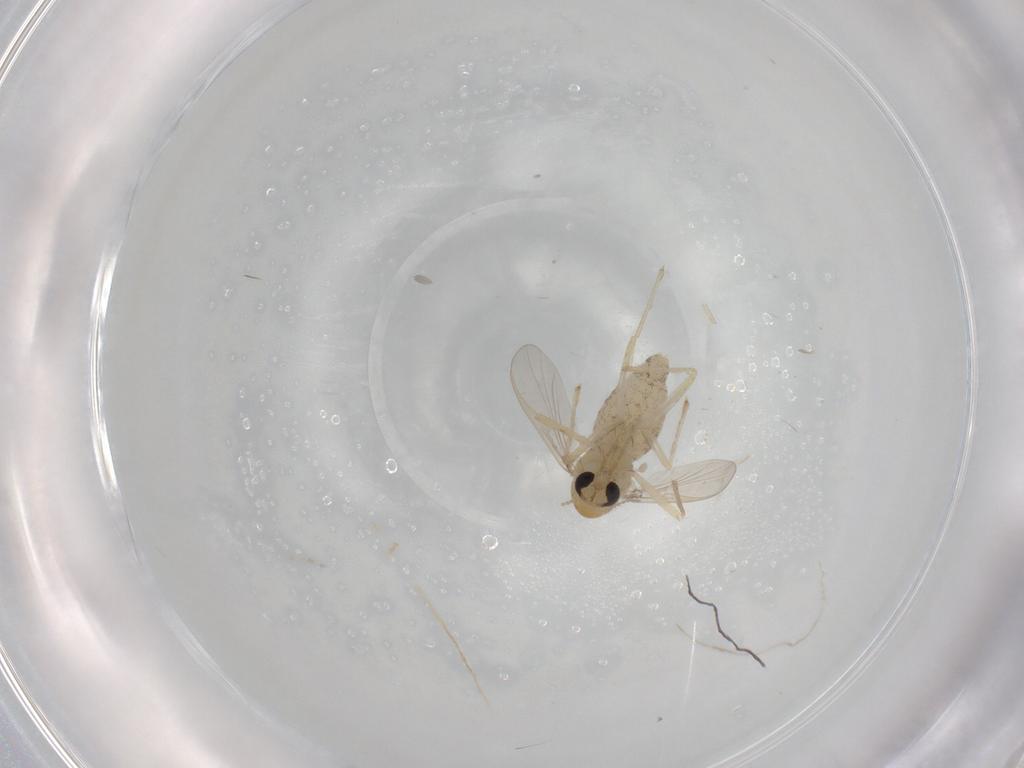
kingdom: Animalia
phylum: Arthropoda
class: Insecta
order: Diptera
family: Chironomidae
